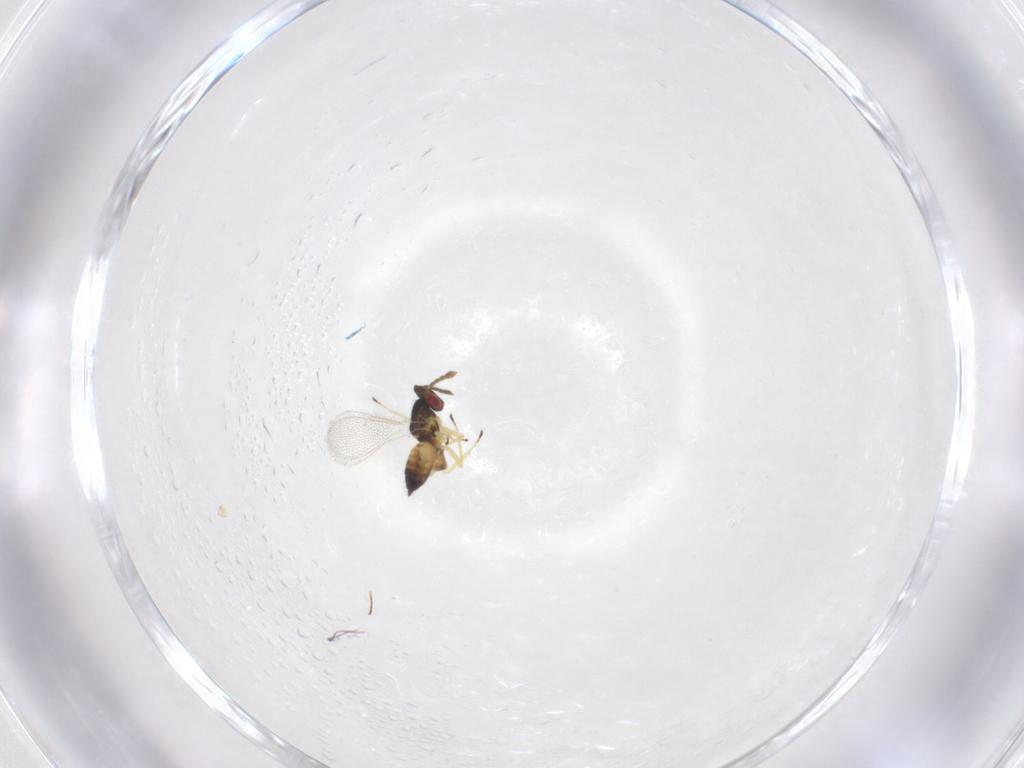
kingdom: Animalia
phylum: Arthropoda
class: Insecta
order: Hymenoptera
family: Eulophidae
